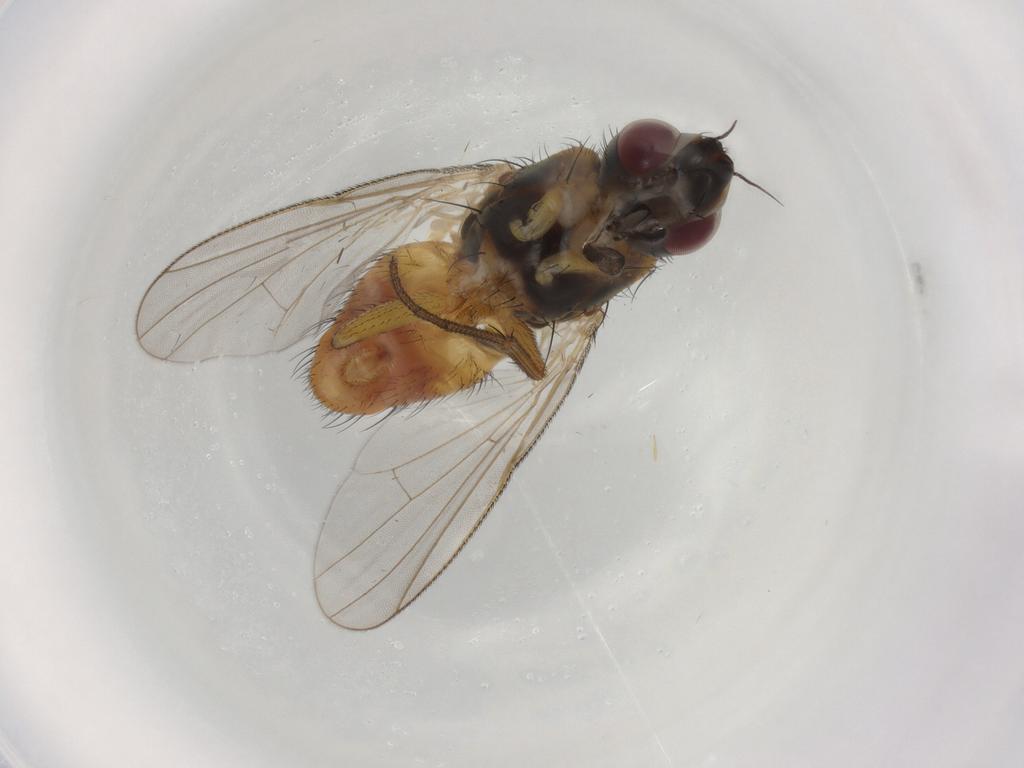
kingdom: Animalia
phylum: Arthropoda
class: Insecta
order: Diptera
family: Muscidae
